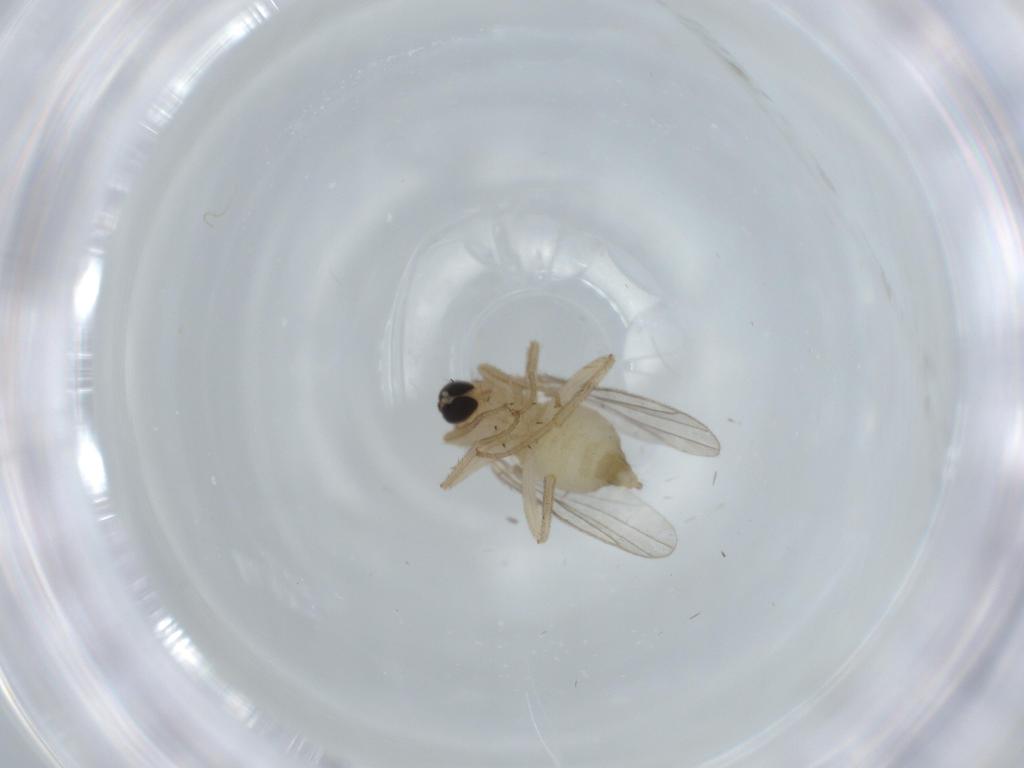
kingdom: Animalia
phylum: Arthropoda
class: Insecta
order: Diptera
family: Hybotidae
